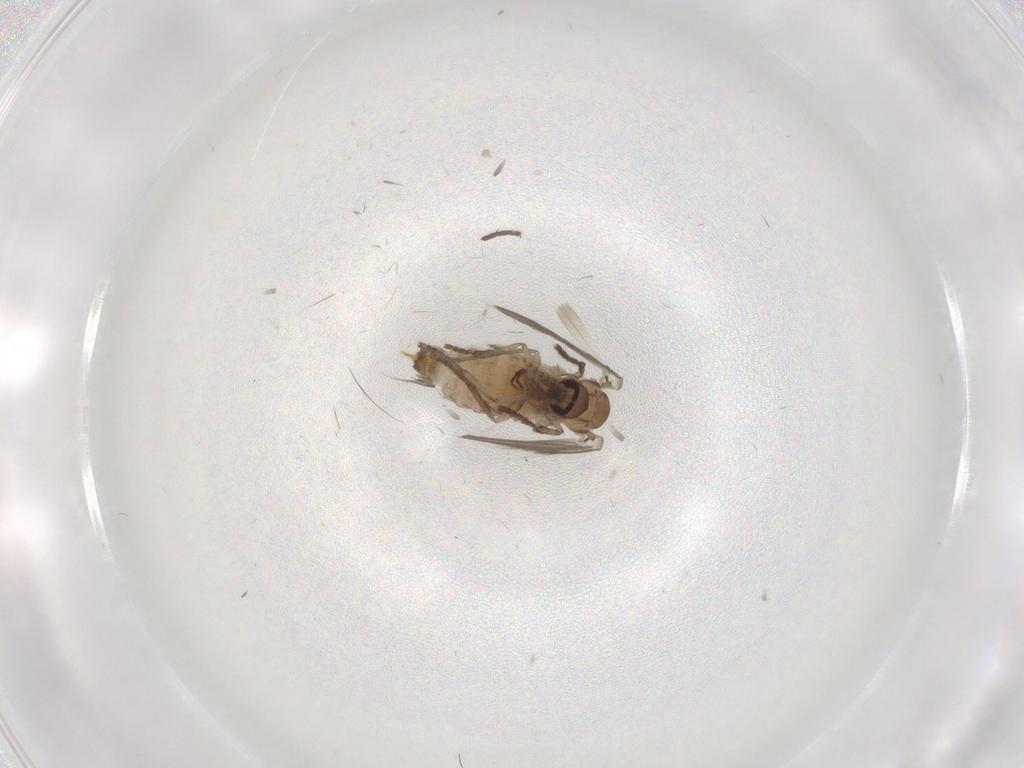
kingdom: Animalia
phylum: Arthropoda
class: Insecta
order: Diptera
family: Psychodidae
